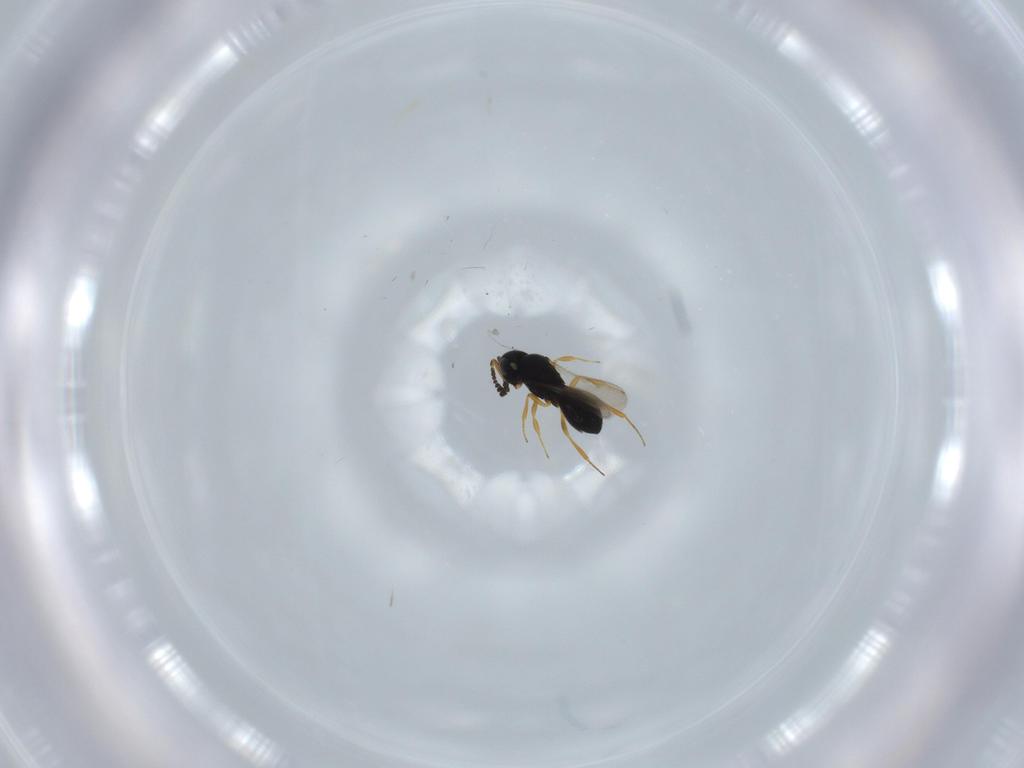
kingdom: Animalia
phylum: Arthropoda
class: Insecta
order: Hymenoptera
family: Scelionidae
